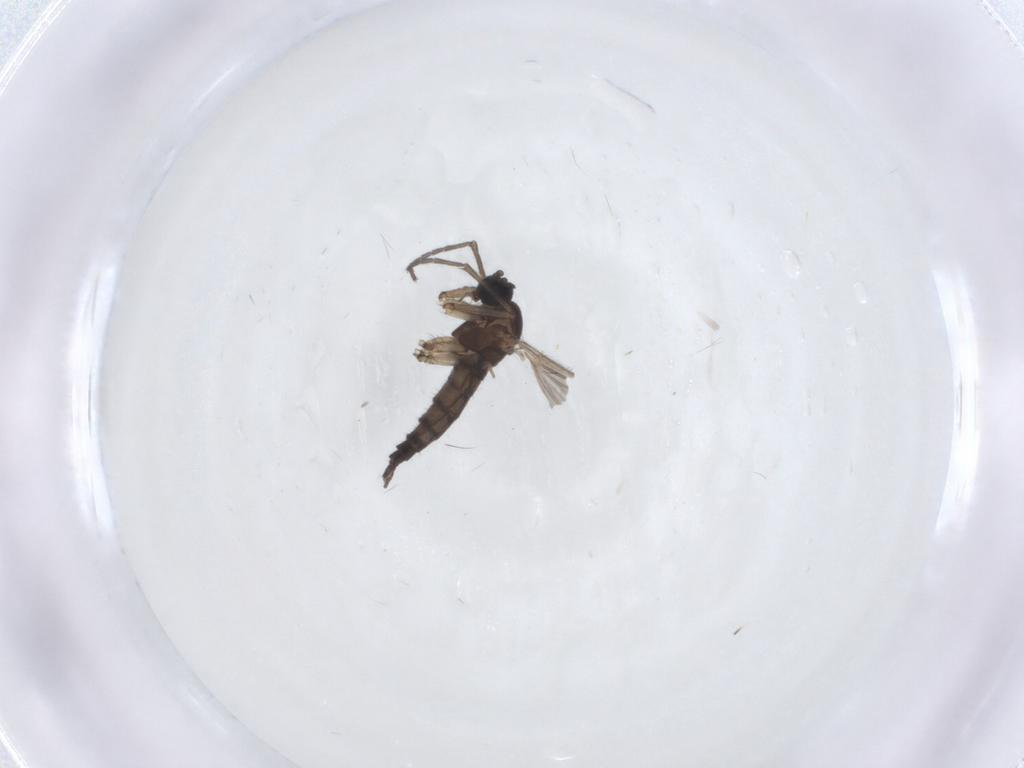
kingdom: Animalia
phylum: Arthropoda
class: Insecta
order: Diptera
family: Sciaridae
